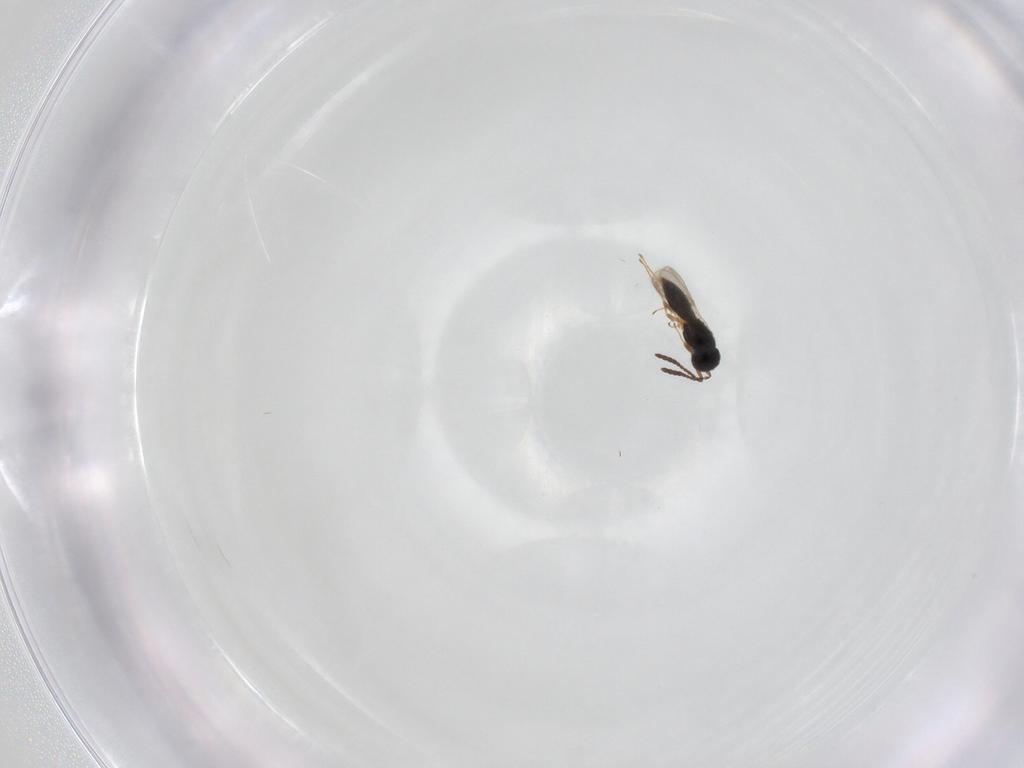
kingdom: Animalia
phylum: Arthropoda
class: Insecta
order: Hymenoptera
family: Scelionidae
